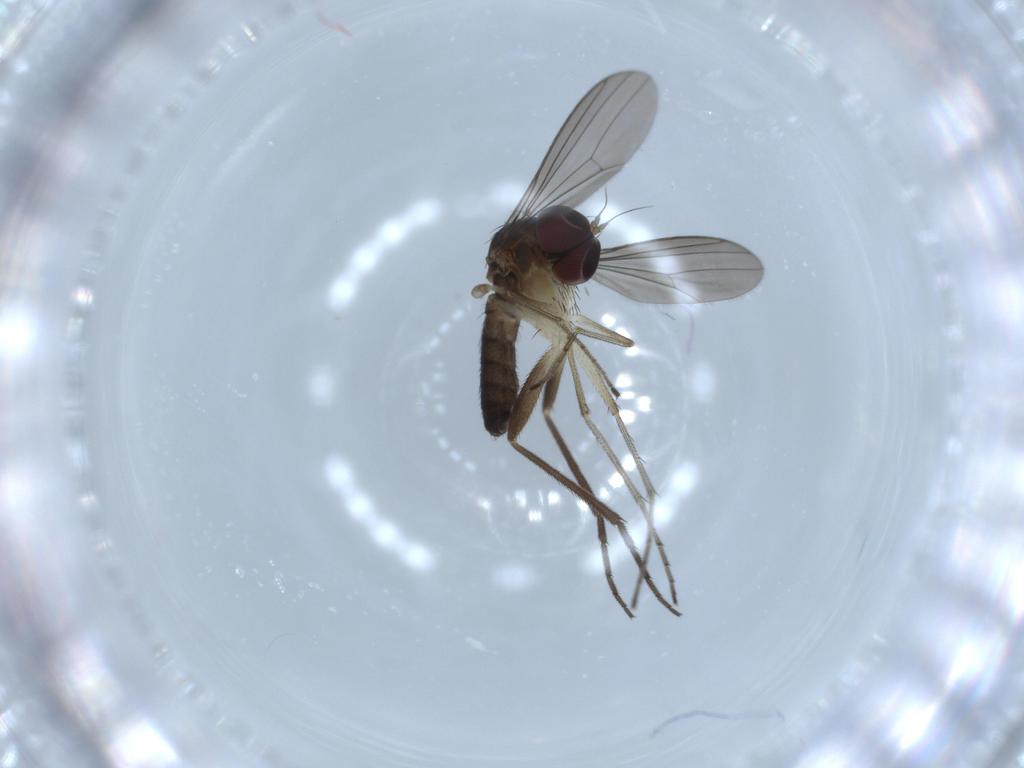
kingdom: Animalia
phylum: Arthropoda
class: Insecta
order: Diptera
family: Dolichopodidae
